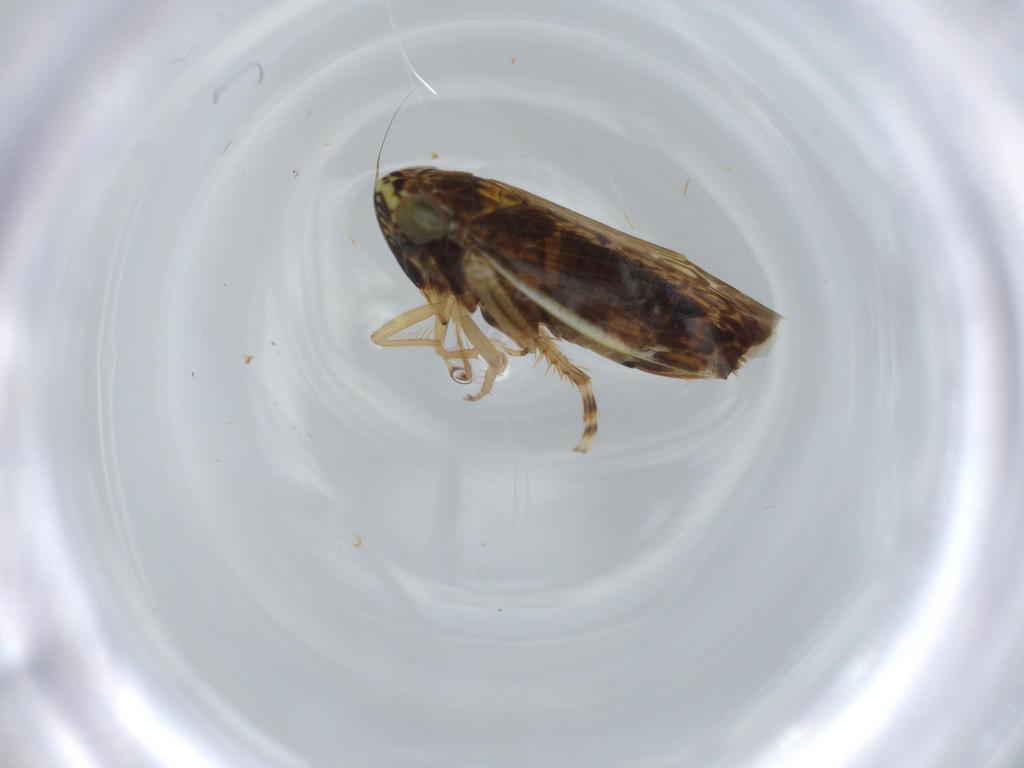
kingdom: Animalia
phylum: Arthropoda
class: Insecta
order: Hemiptera
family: Cicadellidae
